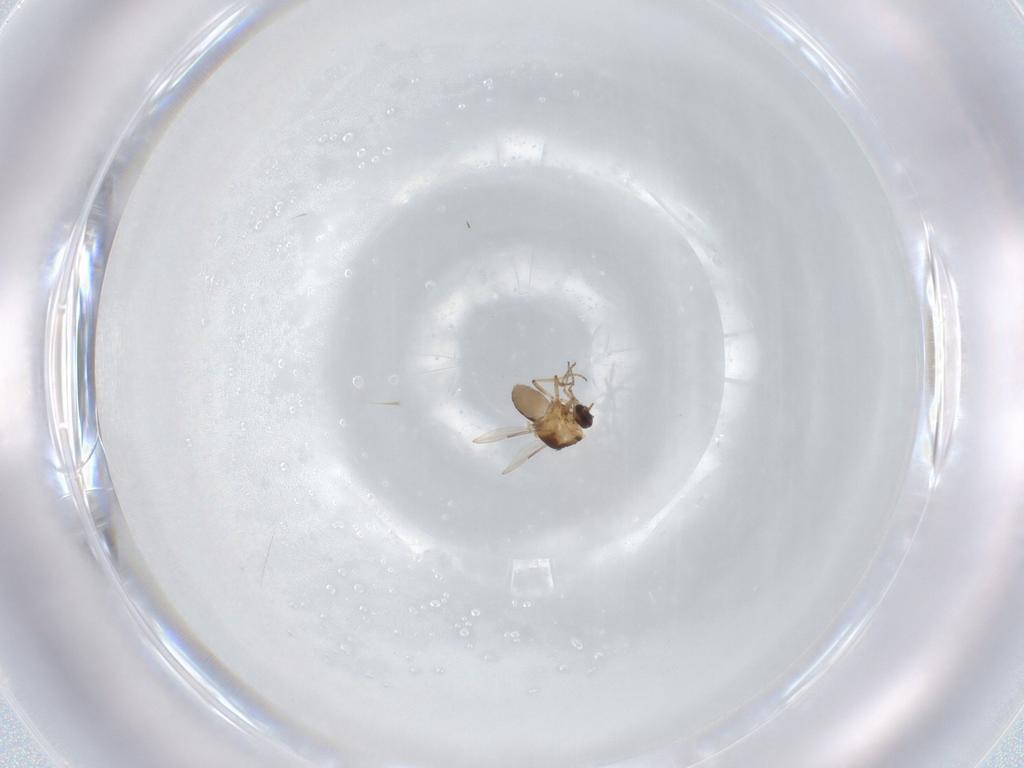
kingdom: Animalia
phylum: Arthropoda
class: Insecta
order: Diptera
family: Ceratopogonidae
